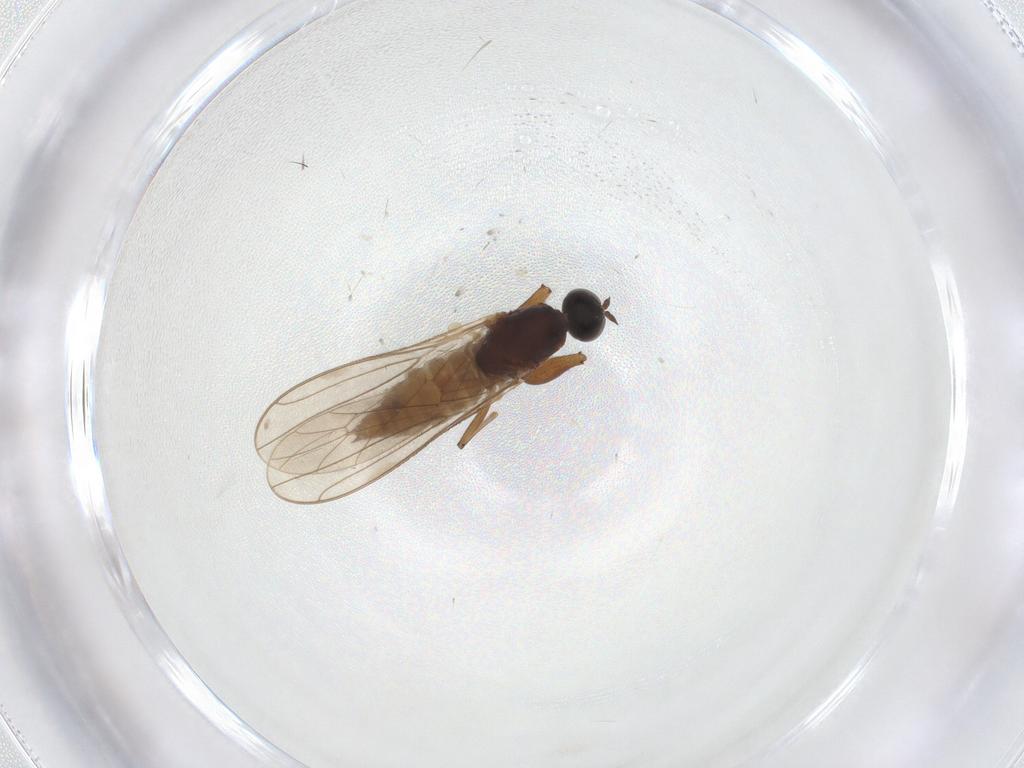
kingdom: Animalia
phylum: Arthropoda
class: Insecta
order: Diptera
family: Empididae
